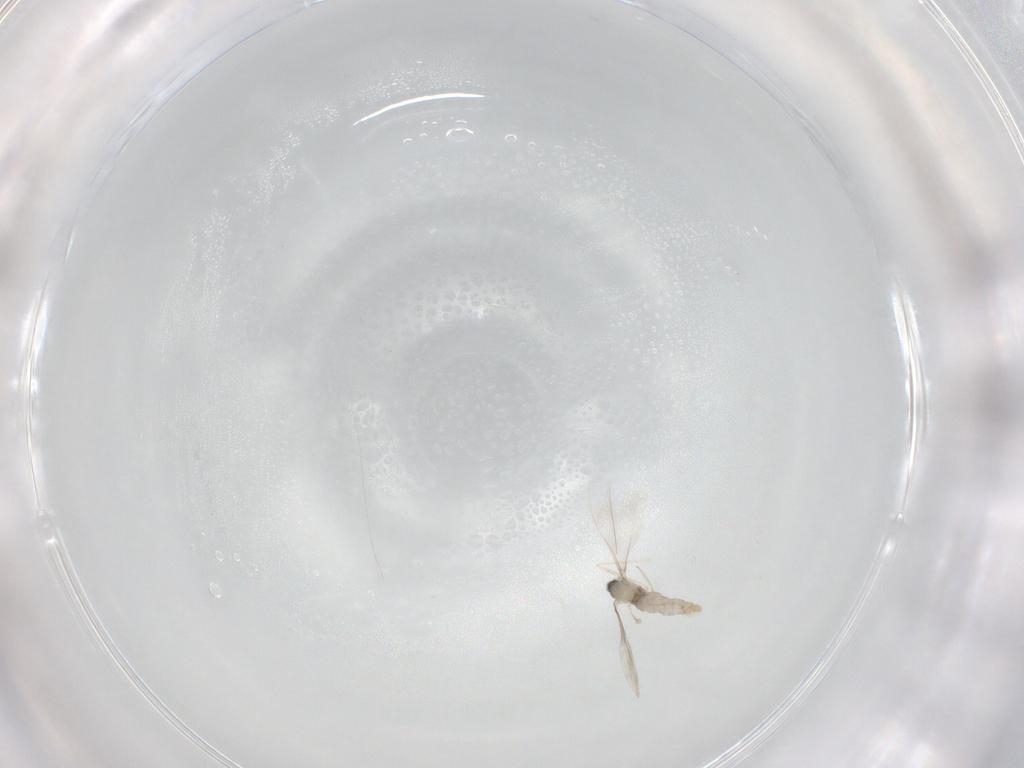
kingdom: Animalia
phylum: Arthropoda
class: Insecta
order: Diptera
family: Cecidomyiidae
